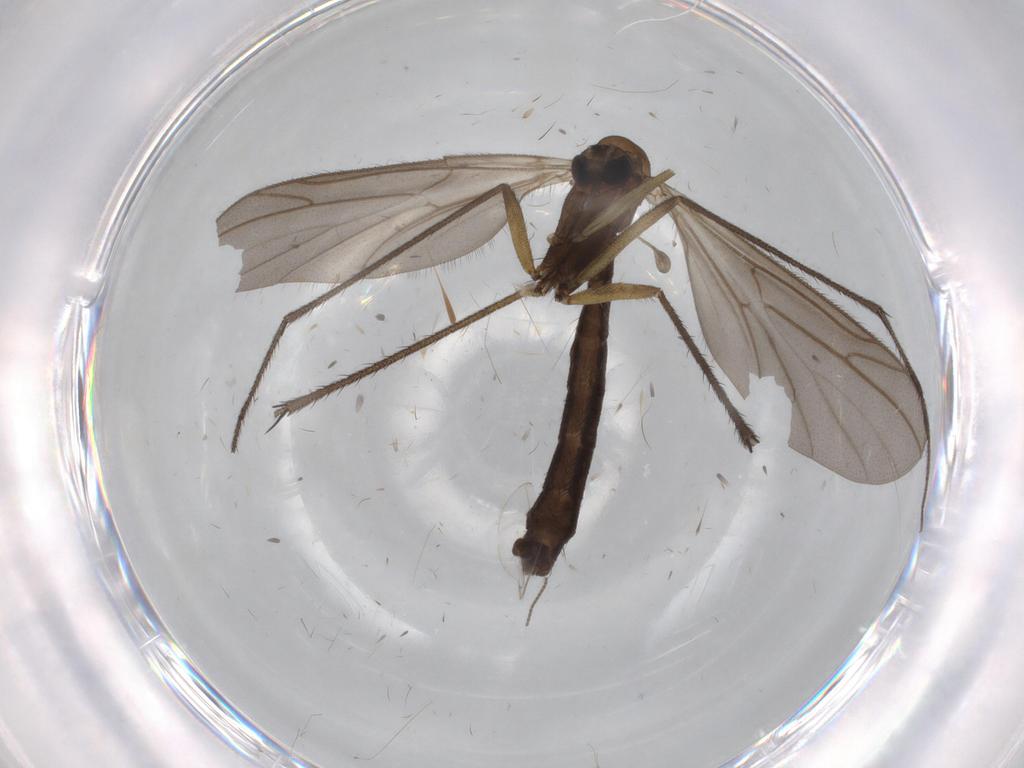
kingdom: Animalia
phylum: Arthropoda
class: Insecta
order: Diptera
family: Ditomyiidae
